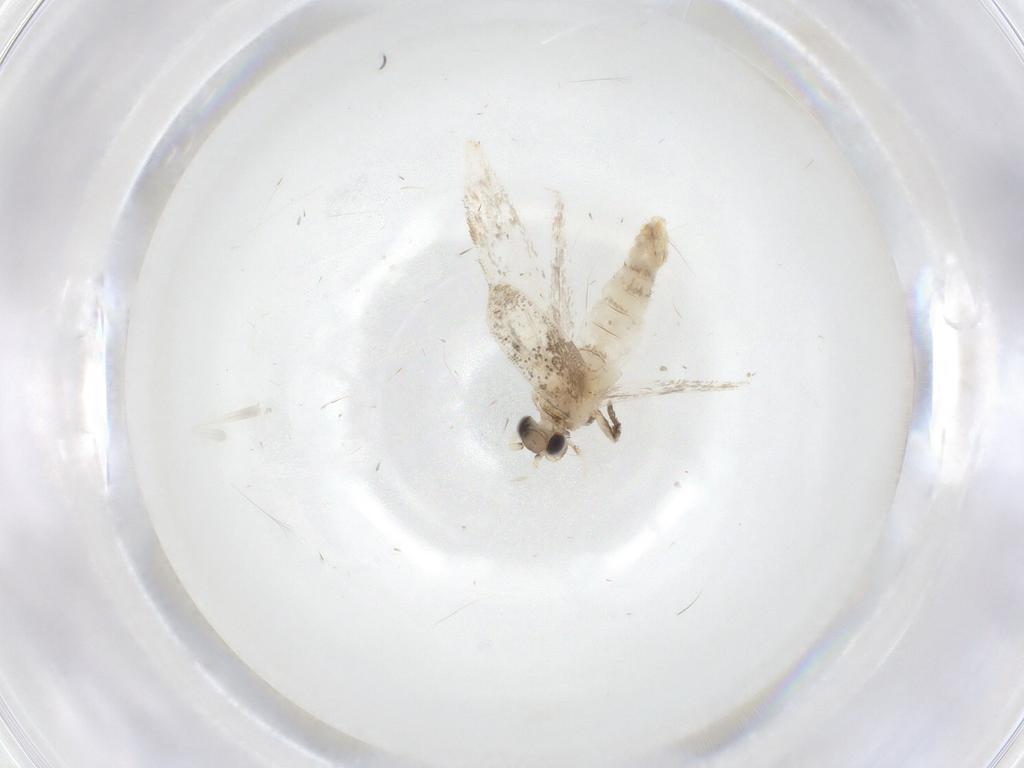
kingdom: Animalia
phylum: Arthropoda
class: Insecta
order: Lepidoptera
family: Dryadaulidae
